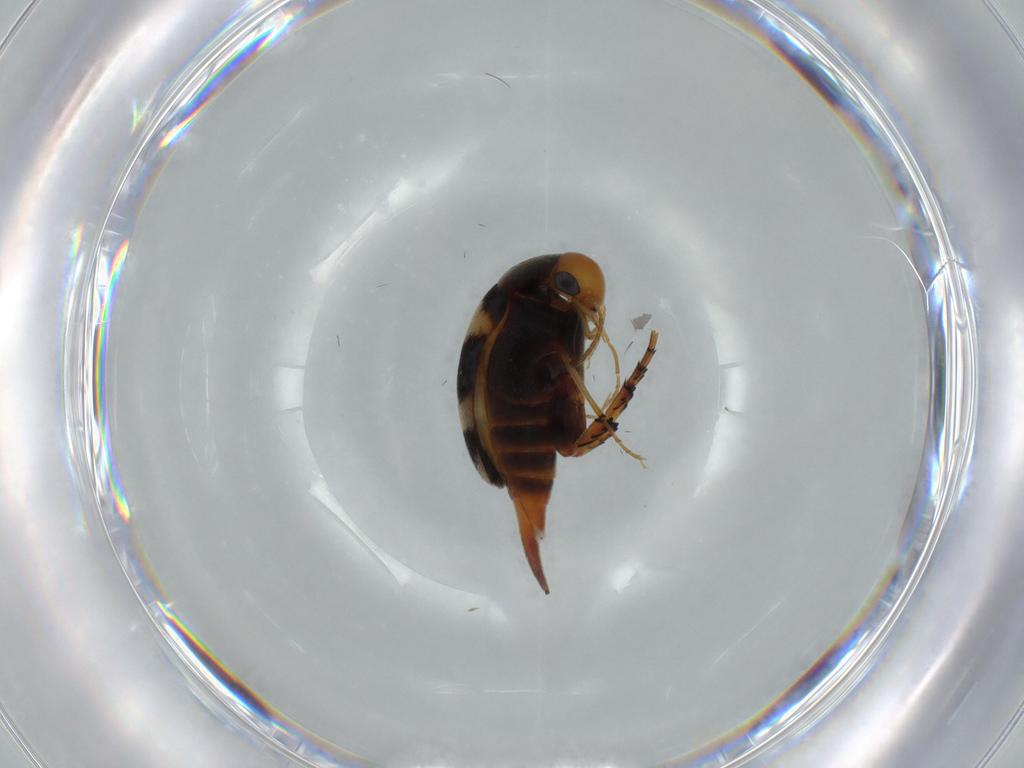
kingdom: Animalia
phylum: Arthropoda
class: Insecta
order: Coleoptera
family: Mordellidae
